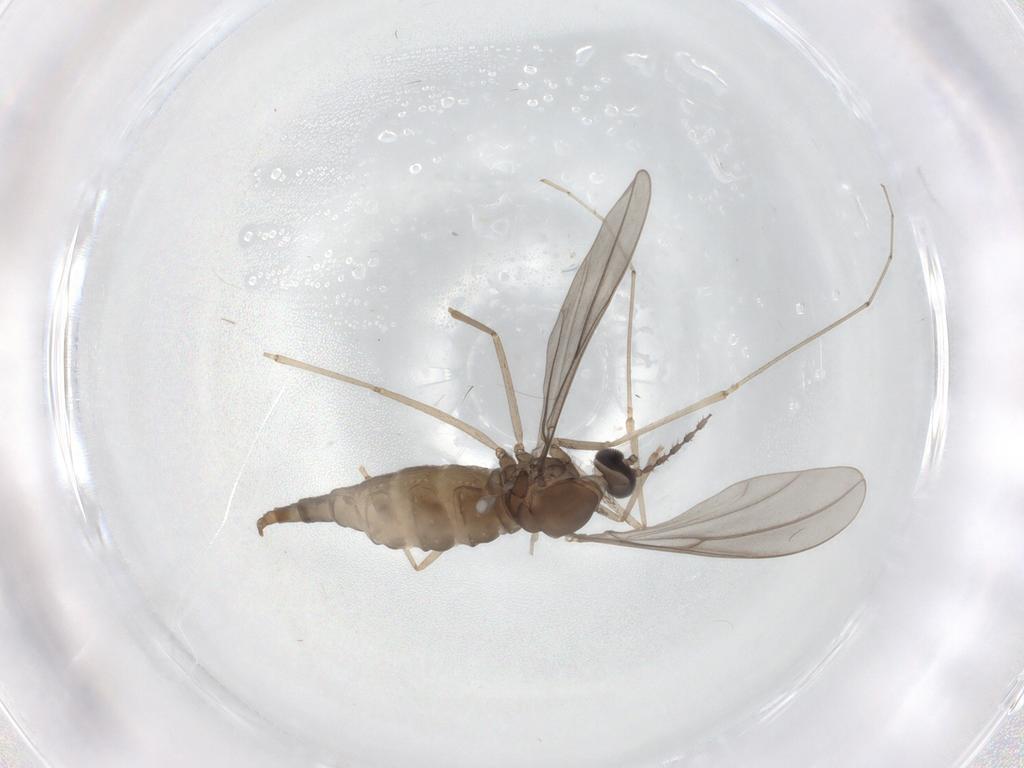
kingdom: Animalia
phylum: Arthropoda
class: Insecta
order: Diptera
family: Cecidomyiidae
